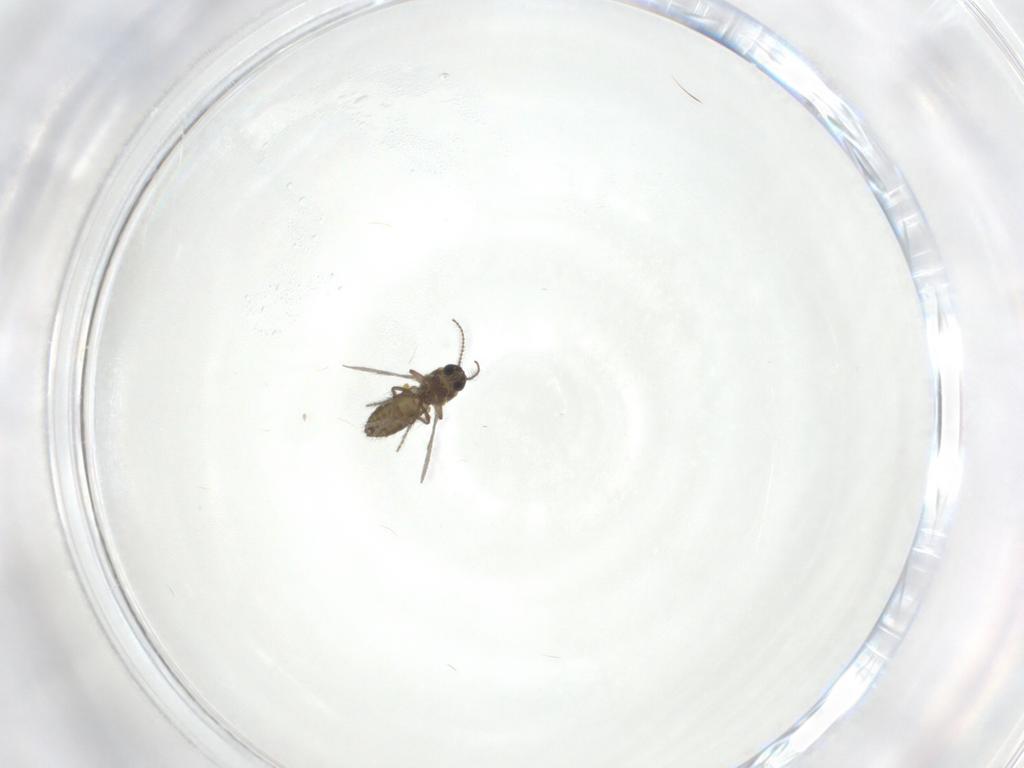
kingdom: Animalia
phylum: Arthropoda
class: Insecta
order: Diptera
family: Ceratopogonidae
